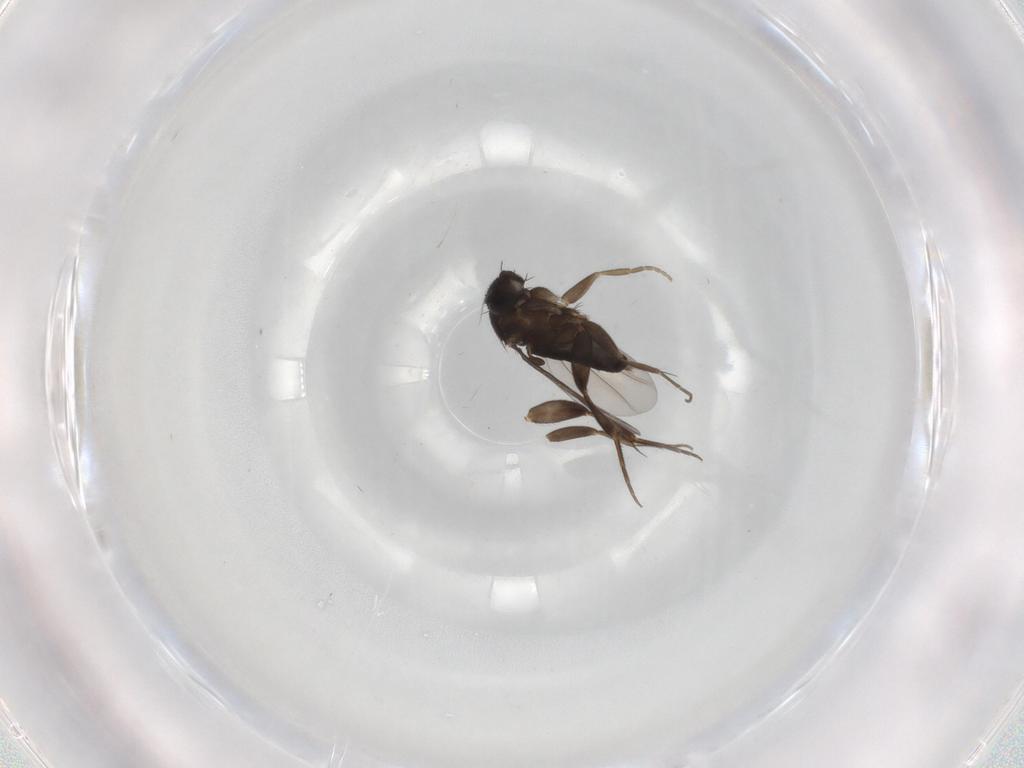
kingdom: Animalia
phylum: Arthropoda
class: Insecta
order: Diptera
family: Phoridae
